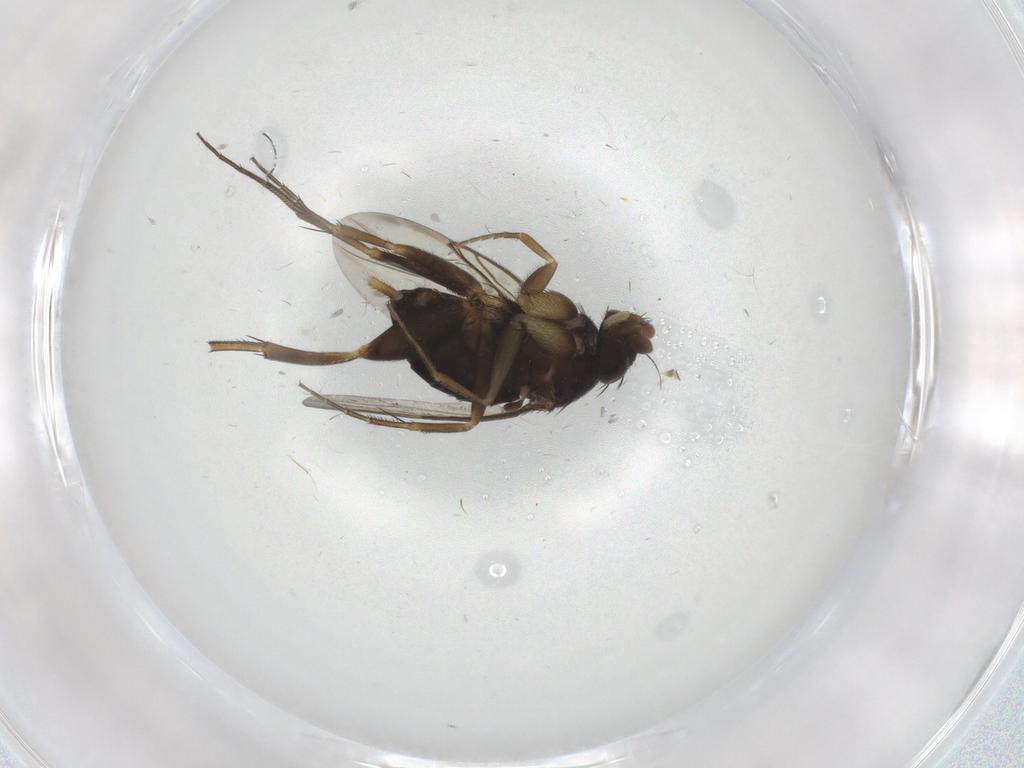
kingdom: Animalia
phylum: Arthropoda
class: Insecta
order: Diptera
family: Phoridae
